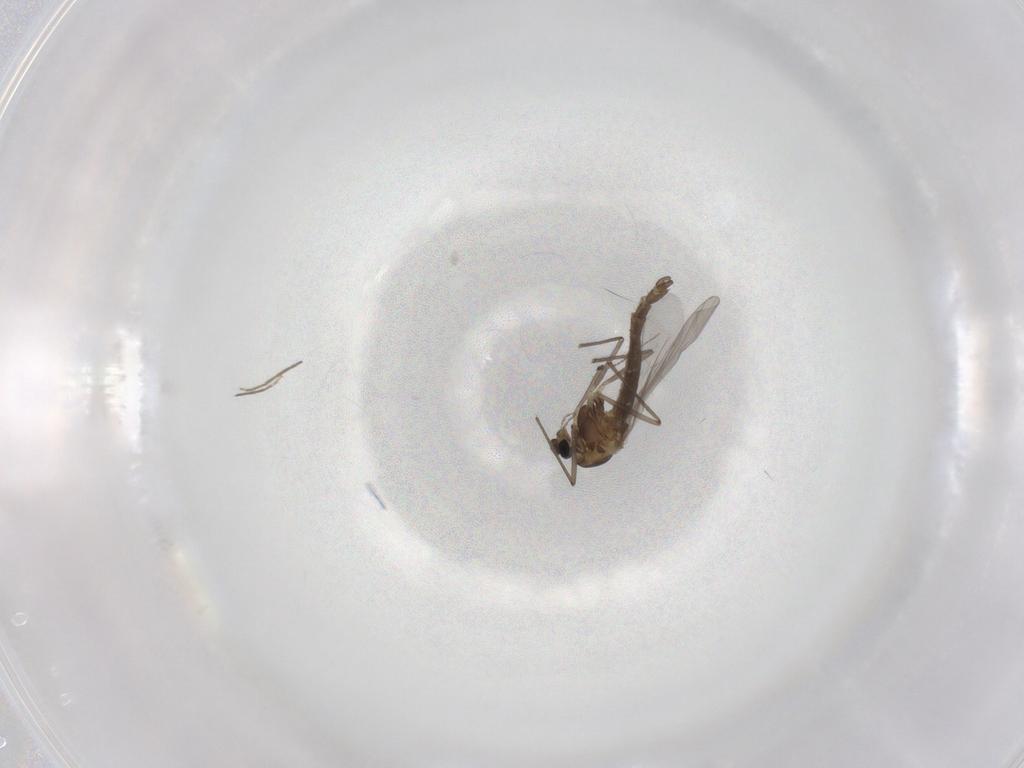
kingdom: Animalia
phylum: Arthropoda
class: Insecta
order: Diptera
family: Chironomidae
